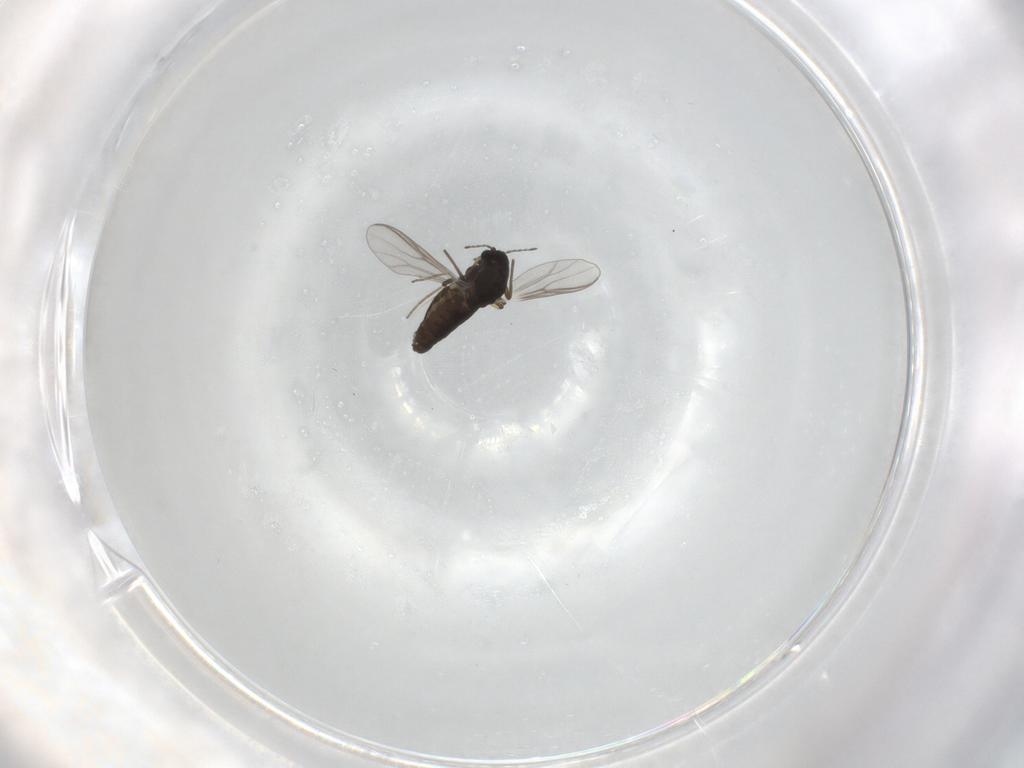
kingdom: Animalia
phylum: Arthropoda
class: Insecta
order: Diptera
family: Chironomidae
